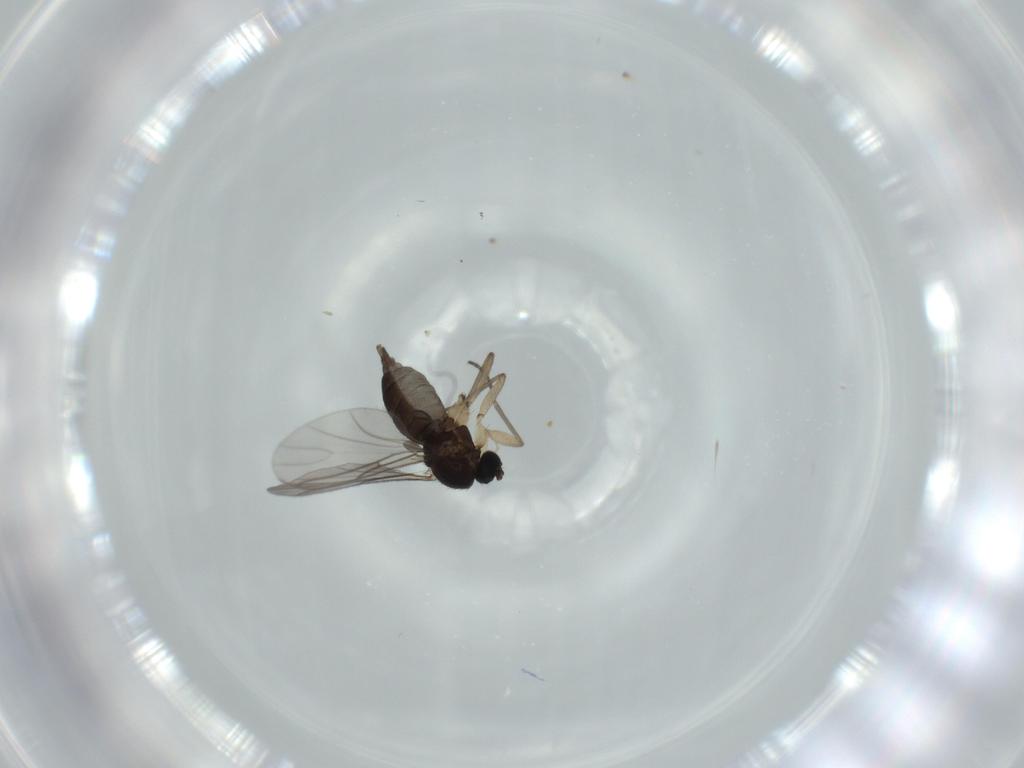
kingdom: Animalia
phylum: Arthropoda
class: Insecta
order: Diptera
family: Sciaridae
